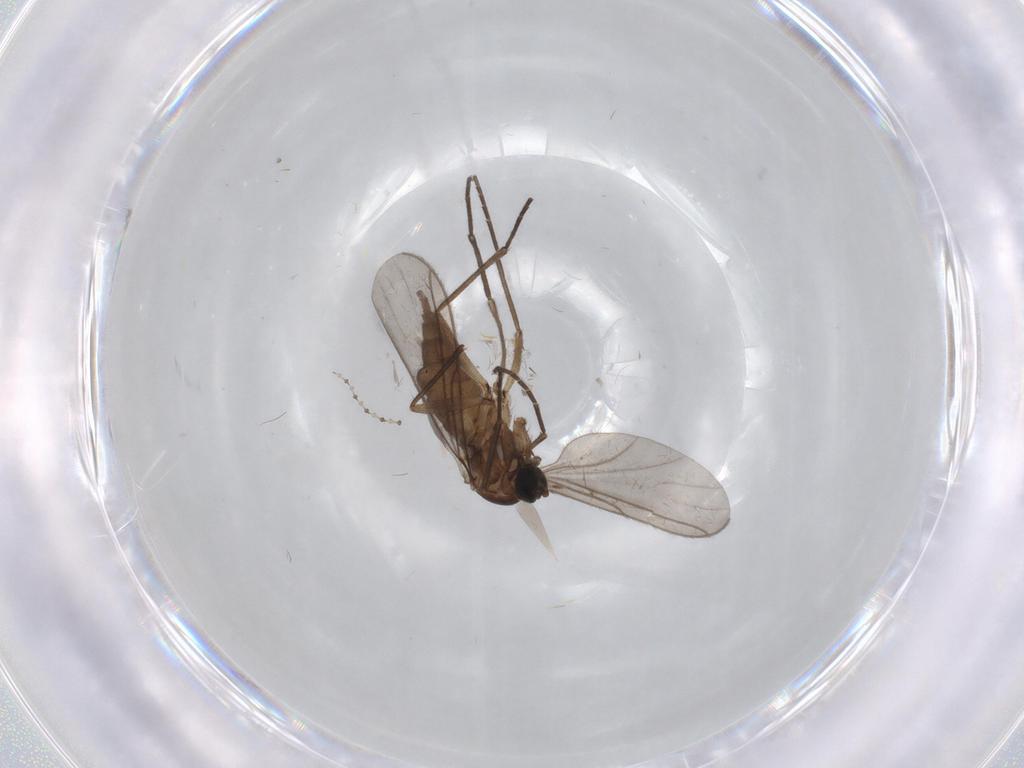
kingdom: Animalia
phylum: Arthropoda
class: Insecta
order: Diptera
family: Sciaridae
